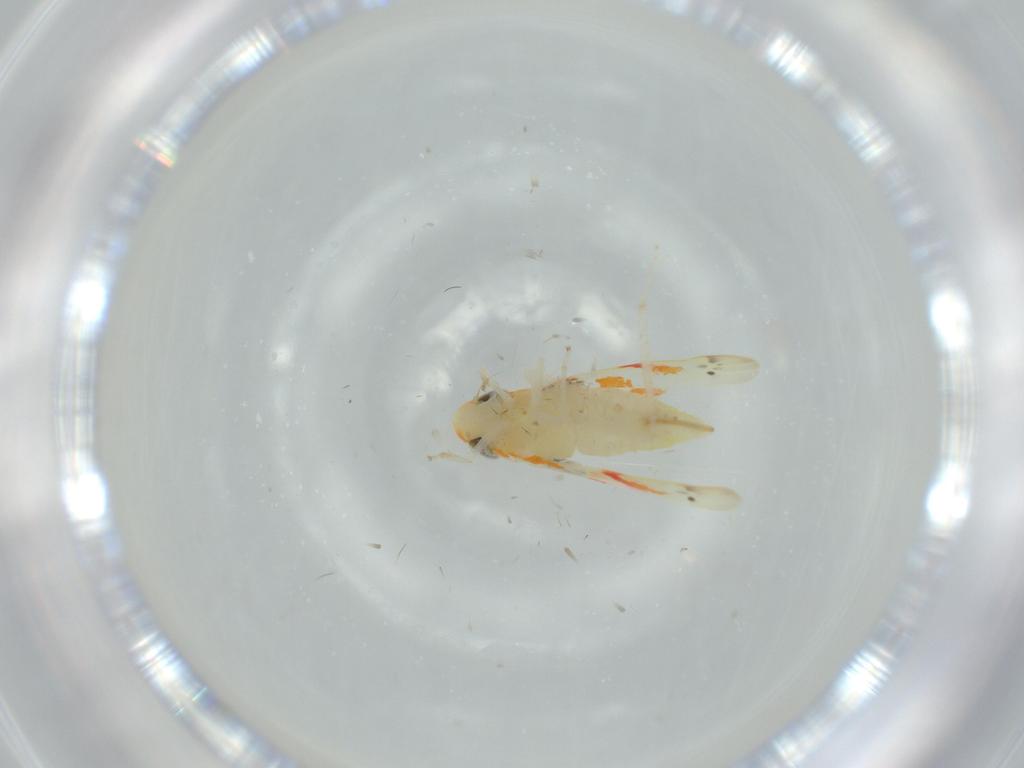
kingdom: Animalia
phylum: Arthropoda
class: Insecta
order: Hemiptera
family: Cicadellidae
